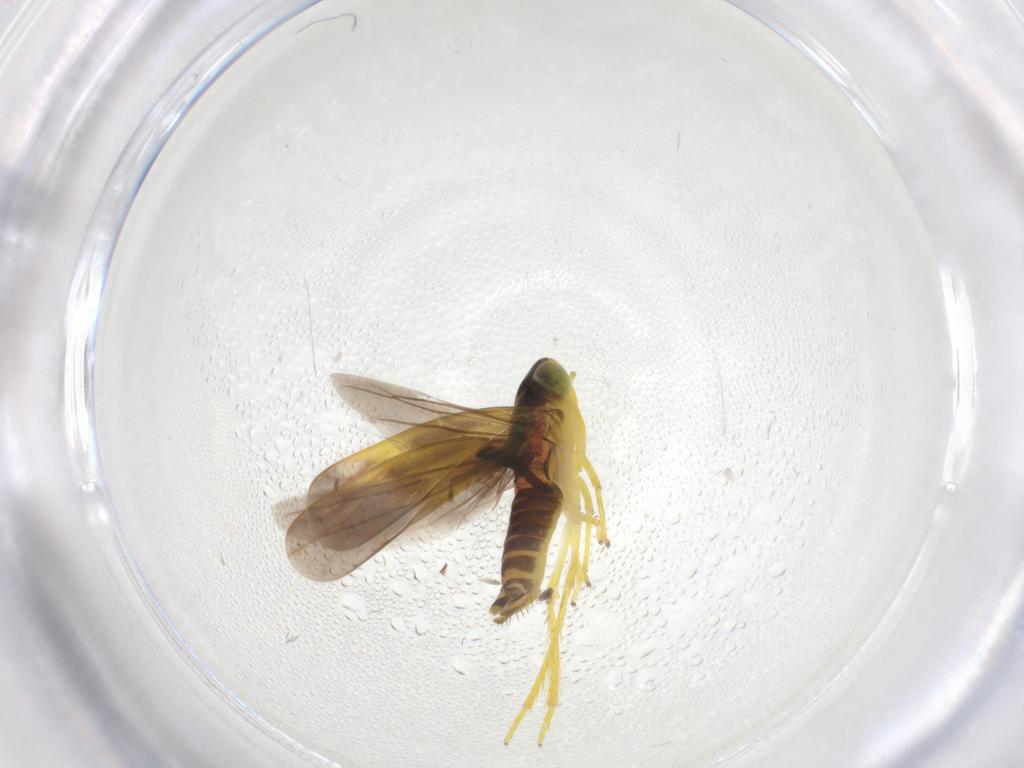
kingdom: Animalia
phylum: Arthropoda
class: Insecta
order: Hemiptera
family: Cicadellidae
